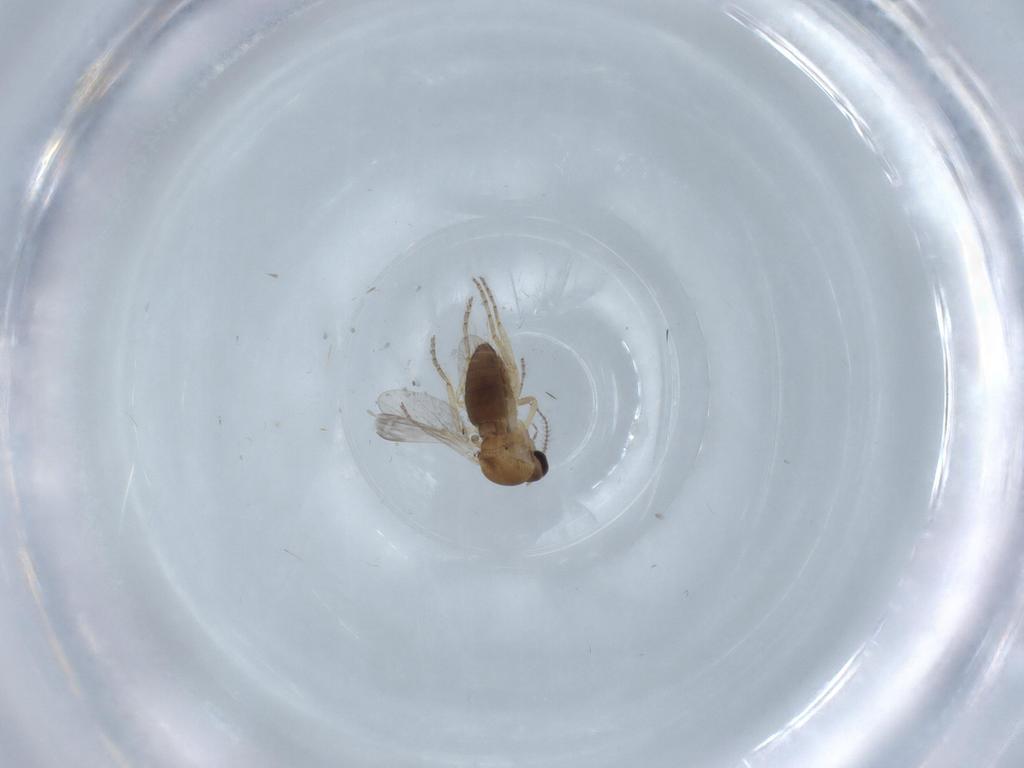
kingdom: Animalia
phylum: Arthropoda
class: Insecta
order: Diptera
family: Ceratopogonidae
